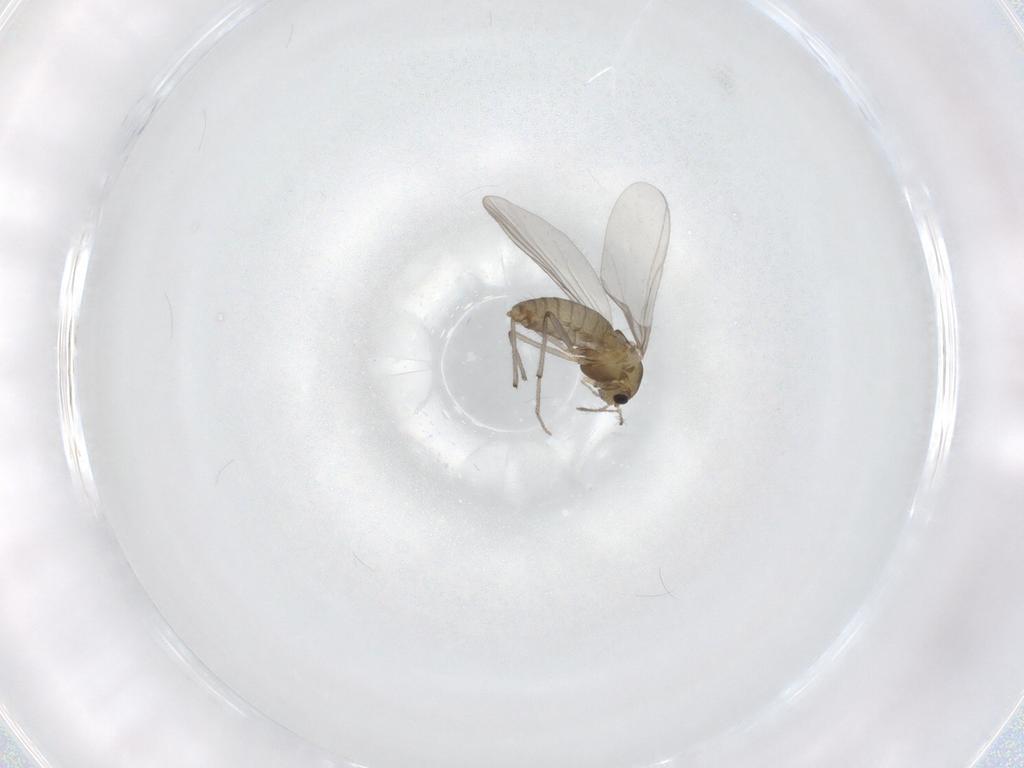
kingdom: Animalia
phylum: Arthropoda
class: Insecta
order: Diptera
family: Chironomidae
